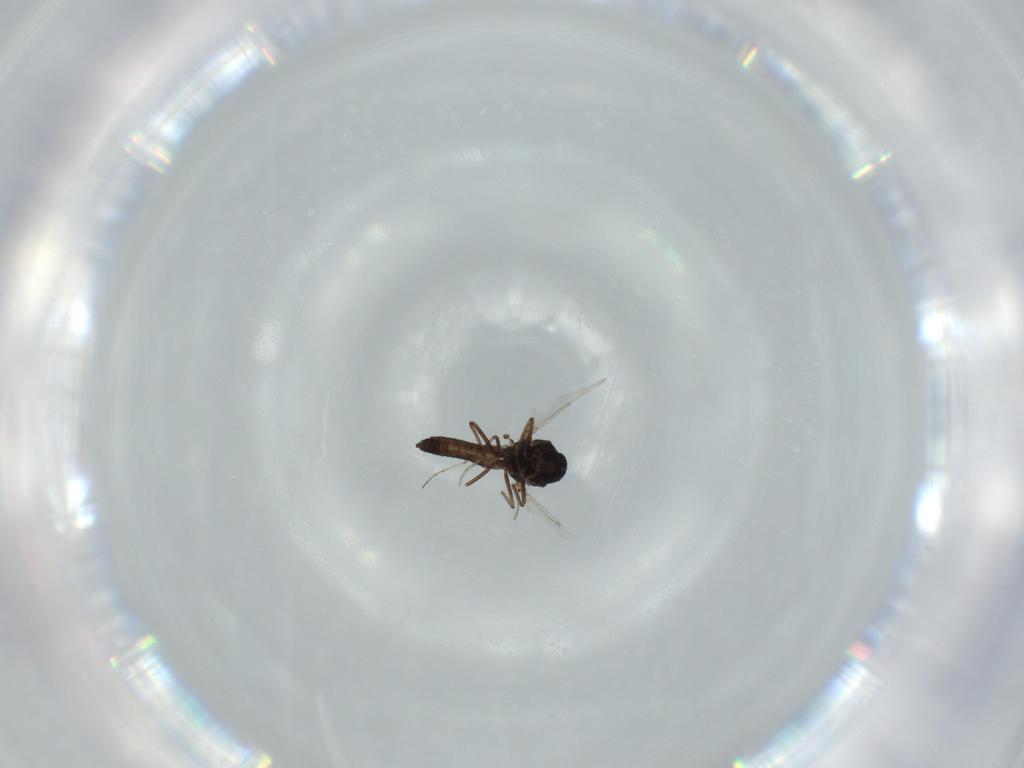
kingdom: Animalia
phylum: Arthropoda
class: Insecta
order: Diptera
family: Ceratopogonidae
